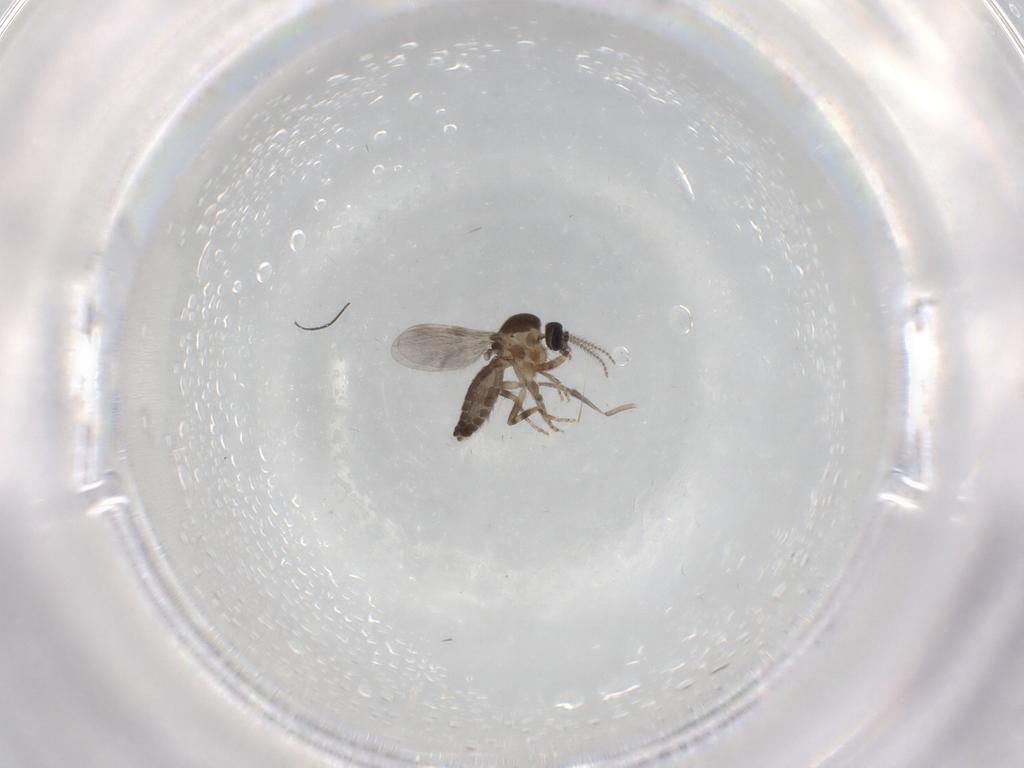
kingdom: Animalia
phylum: Arthropoda
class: Insecta
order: Diptera
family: Ceratopogonidae
